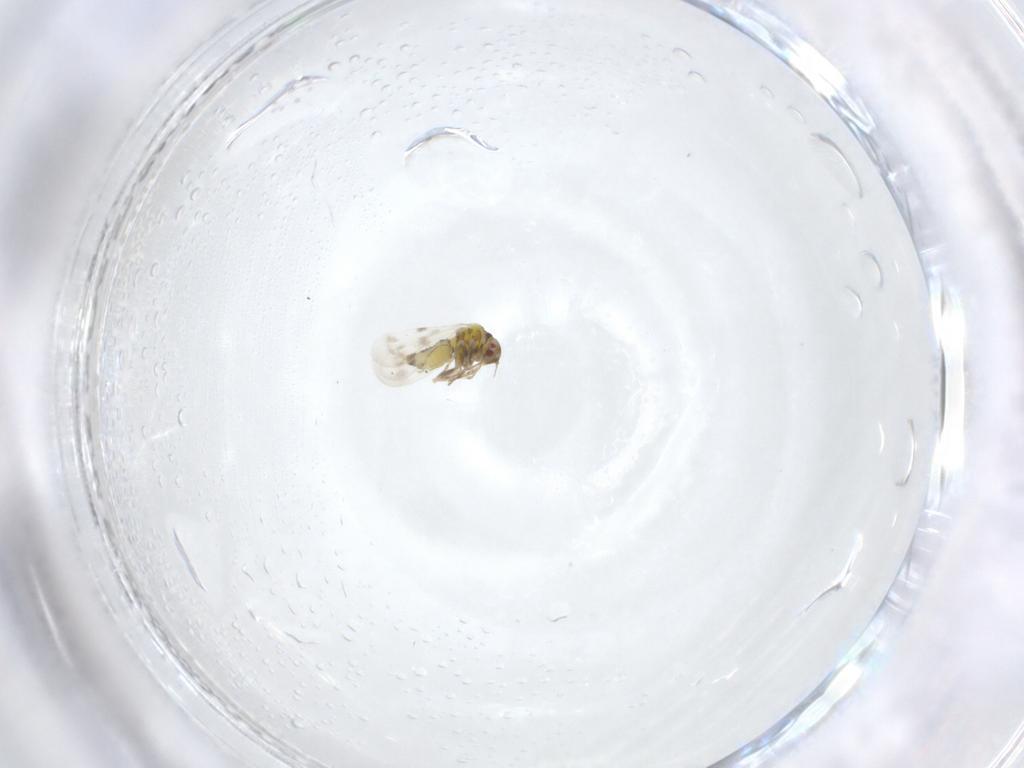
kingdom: Animalia
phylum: Arthropoda
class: Insecta
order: Hemiptera
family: Aleyrodidae
